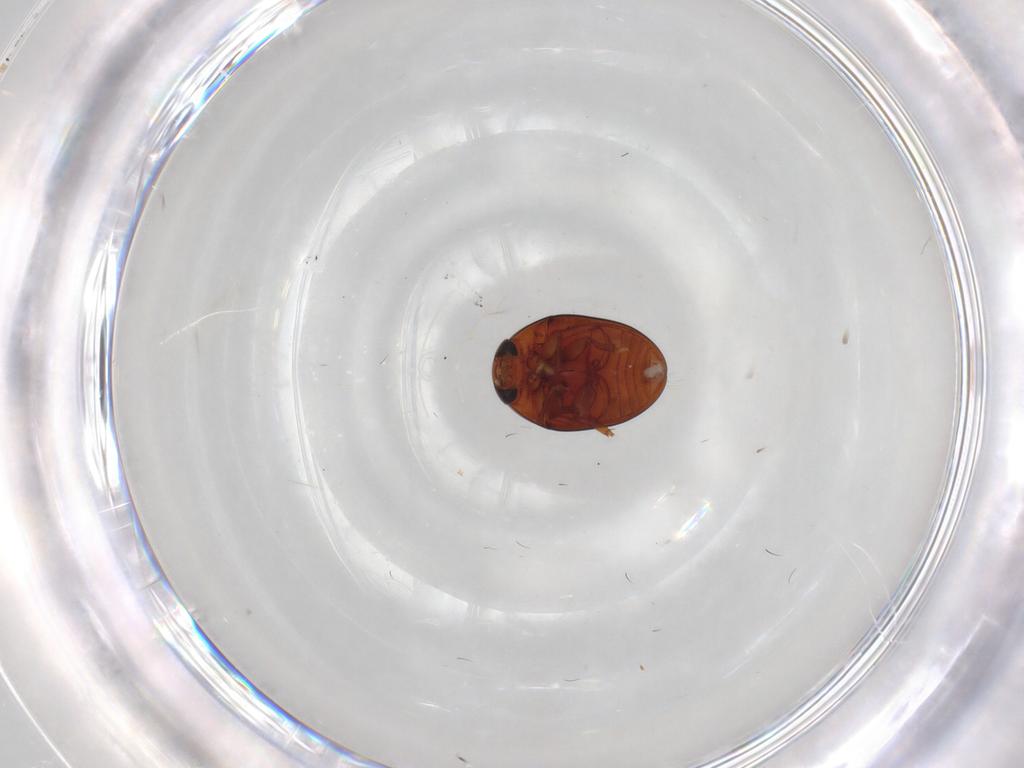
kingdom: Animalia
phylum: Arthropoda
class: Insecta
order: Coleoptera
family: Phalacridae
